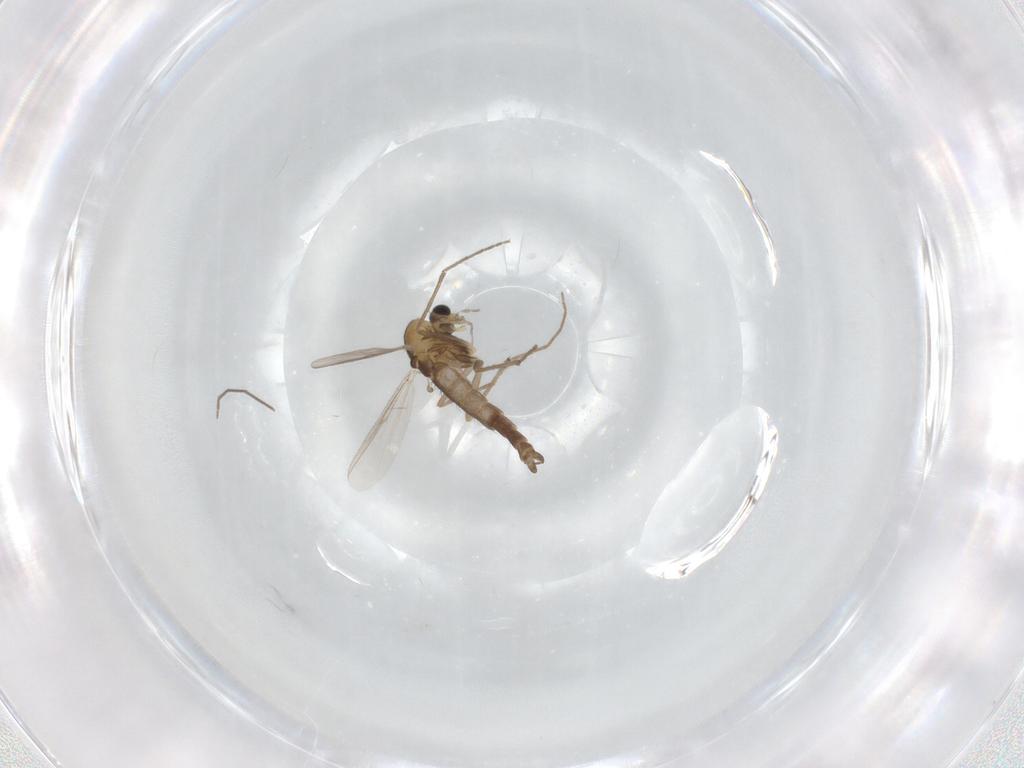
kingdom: Animalia
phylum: Arthropoda
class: Insecta
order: Diptera
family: Chironomidae
